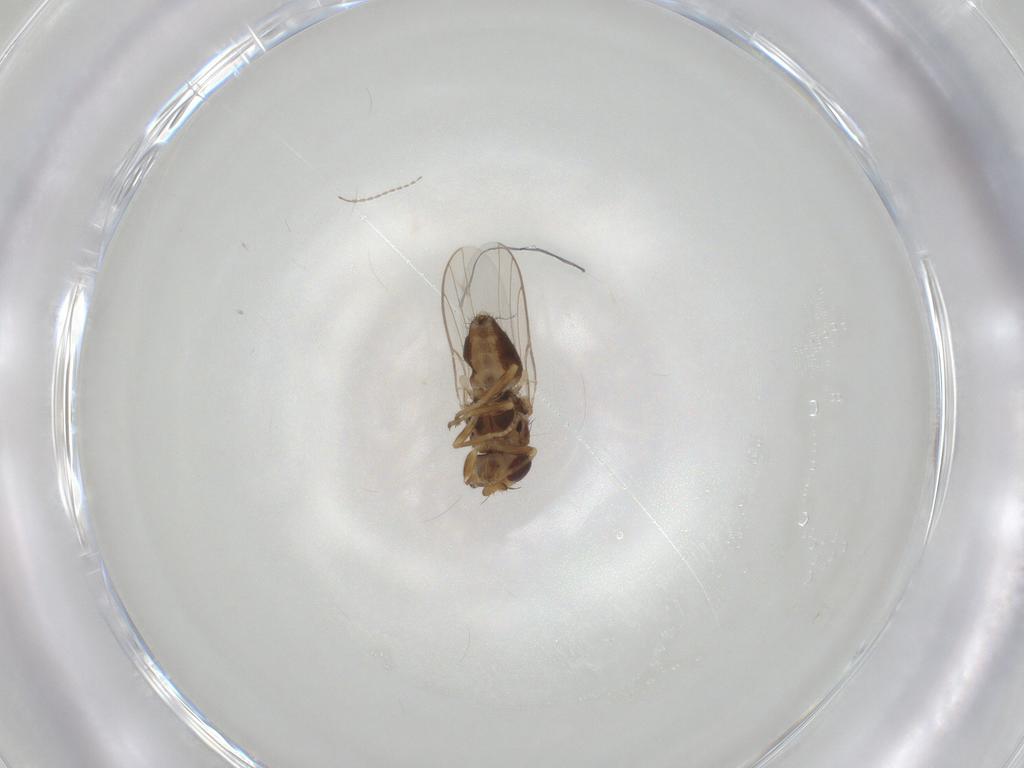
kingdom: Animalia
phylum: Arthropoda
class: Insecta
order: Diptera
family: Chloropidae
